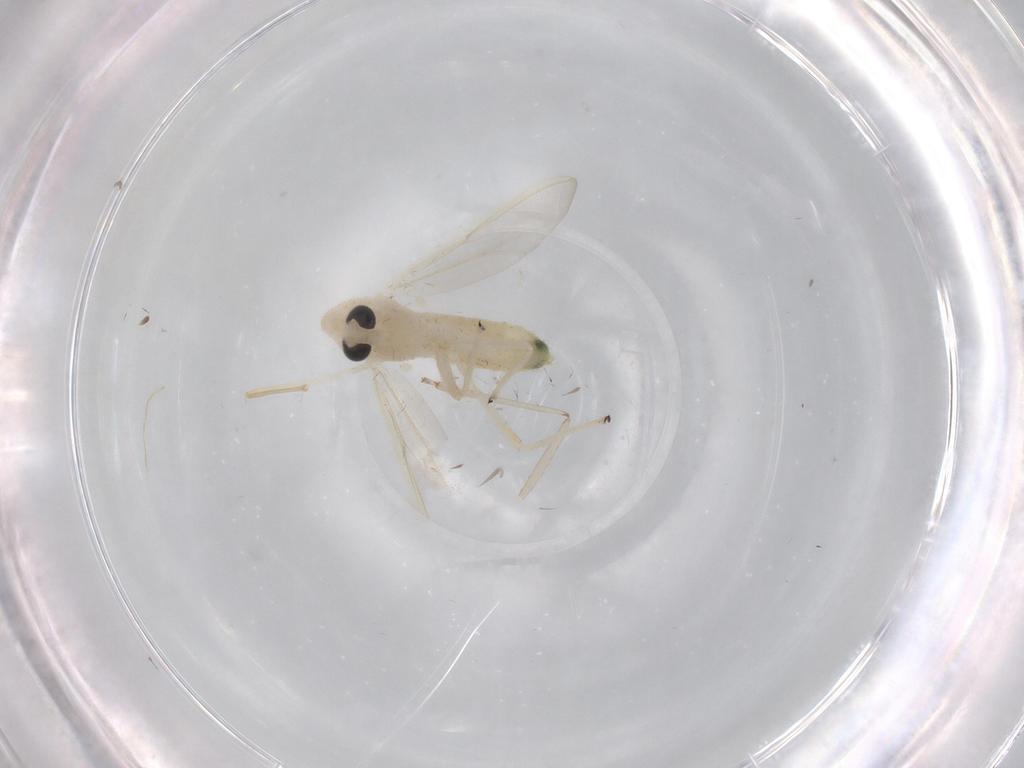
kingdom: Animalia
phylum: Arthropoda
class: Insecta
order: Diptera
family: Chironomidae
